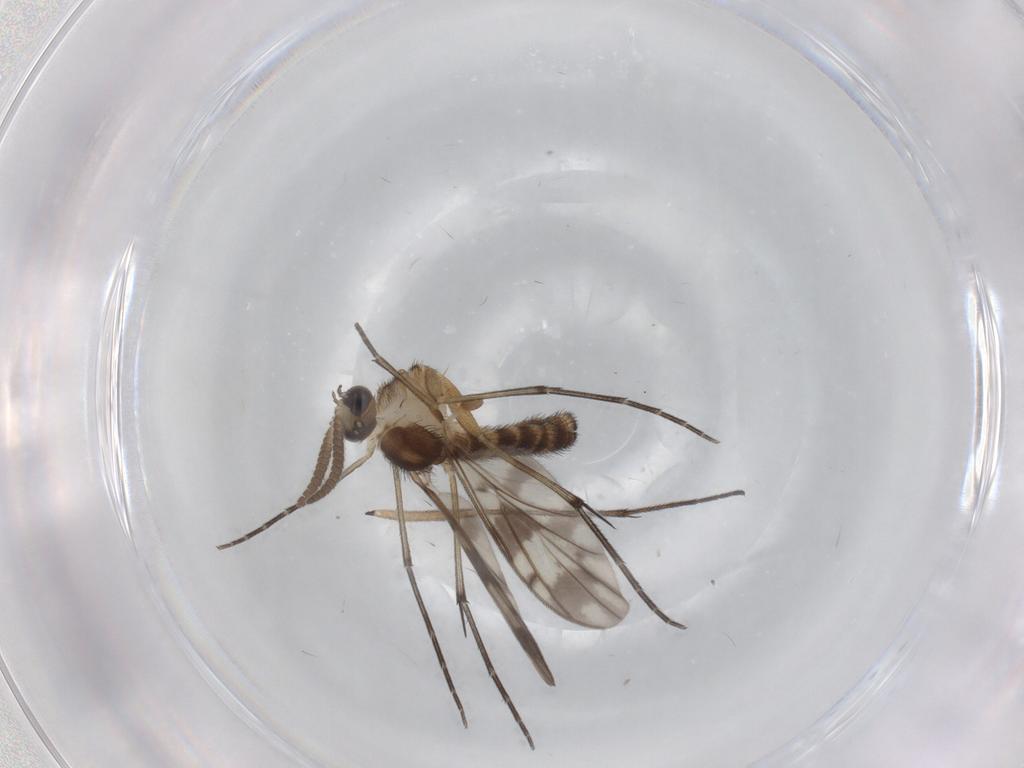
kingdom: Animalia
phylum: Arthropoda
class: Insecta
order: Diptera
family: Keroplatidae
